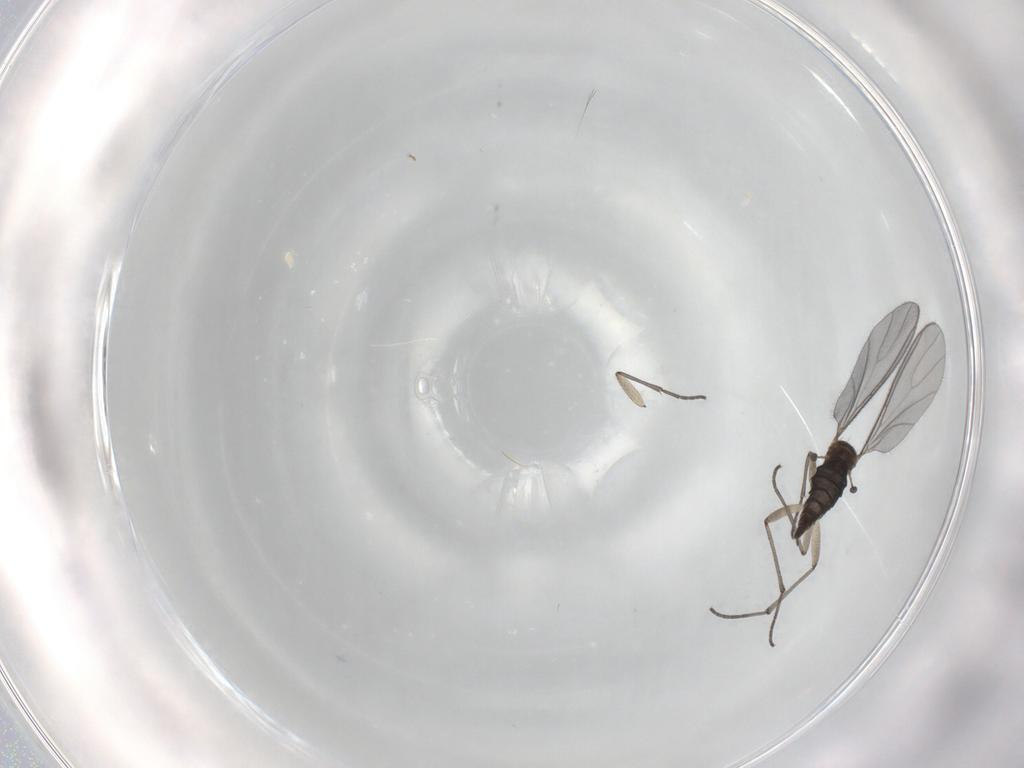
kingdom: Animalia
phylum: Arthropoda
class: Insecta
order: Diptera
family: Sciaridae
